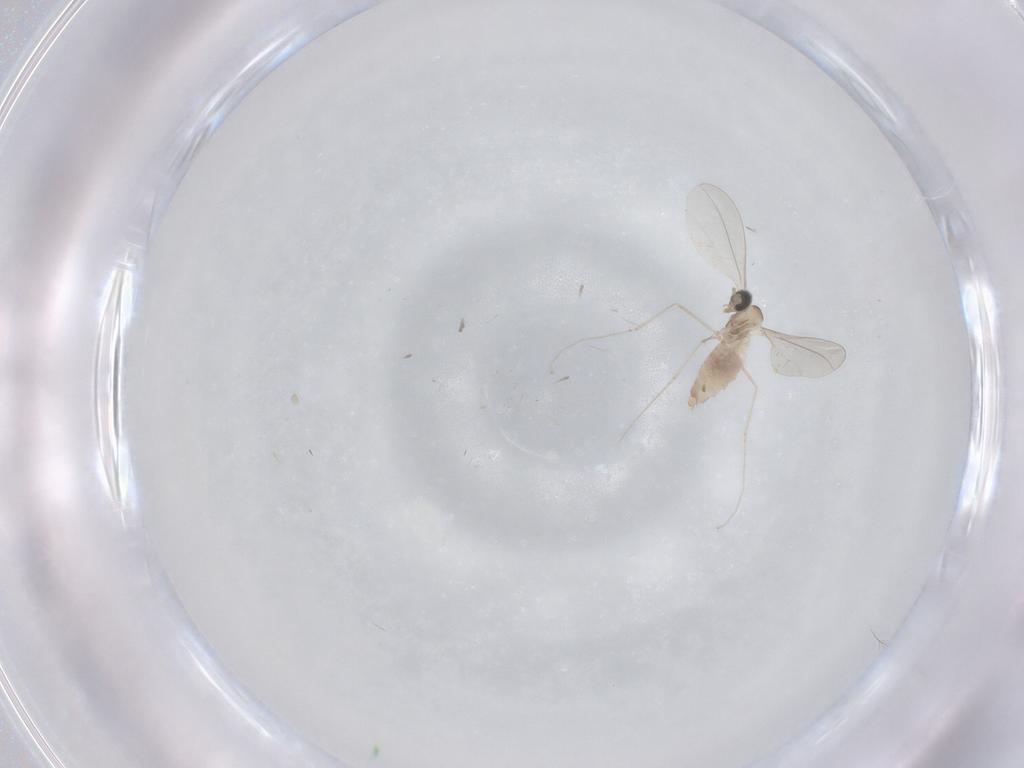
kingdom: Animalia
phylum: Arthropoda
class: Insecta
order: Diptera
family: Cecidomyiidae
